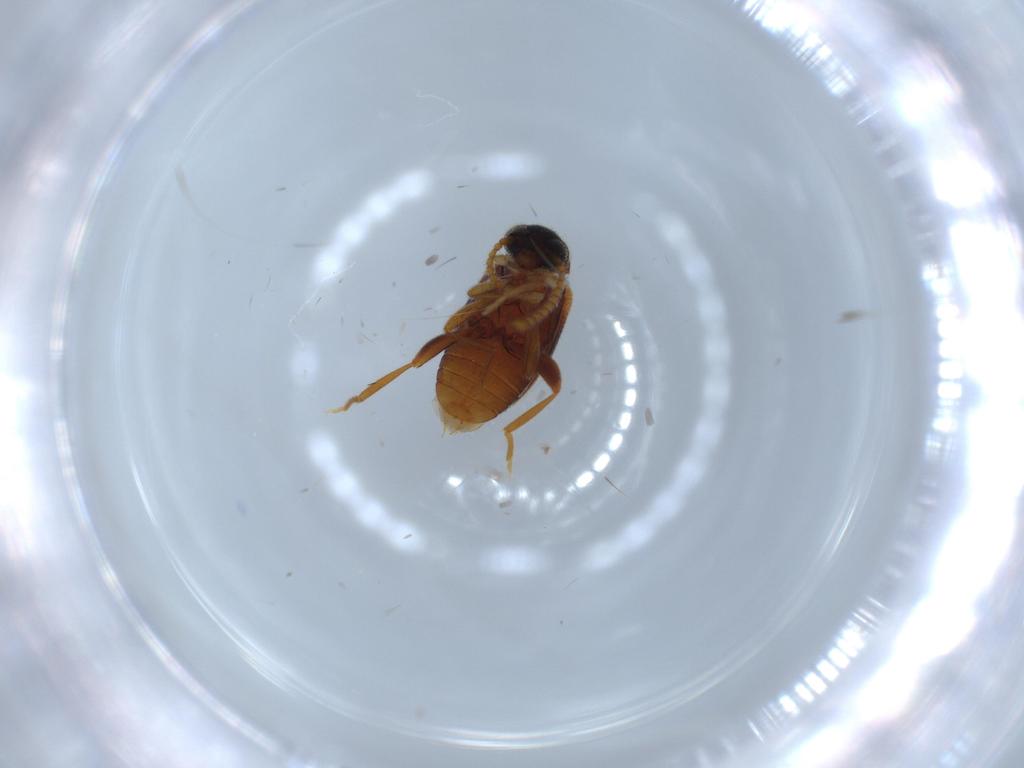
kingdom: Animalia
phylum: Arthropoda
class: Insecta
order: Coleoptera
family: Aderidae
